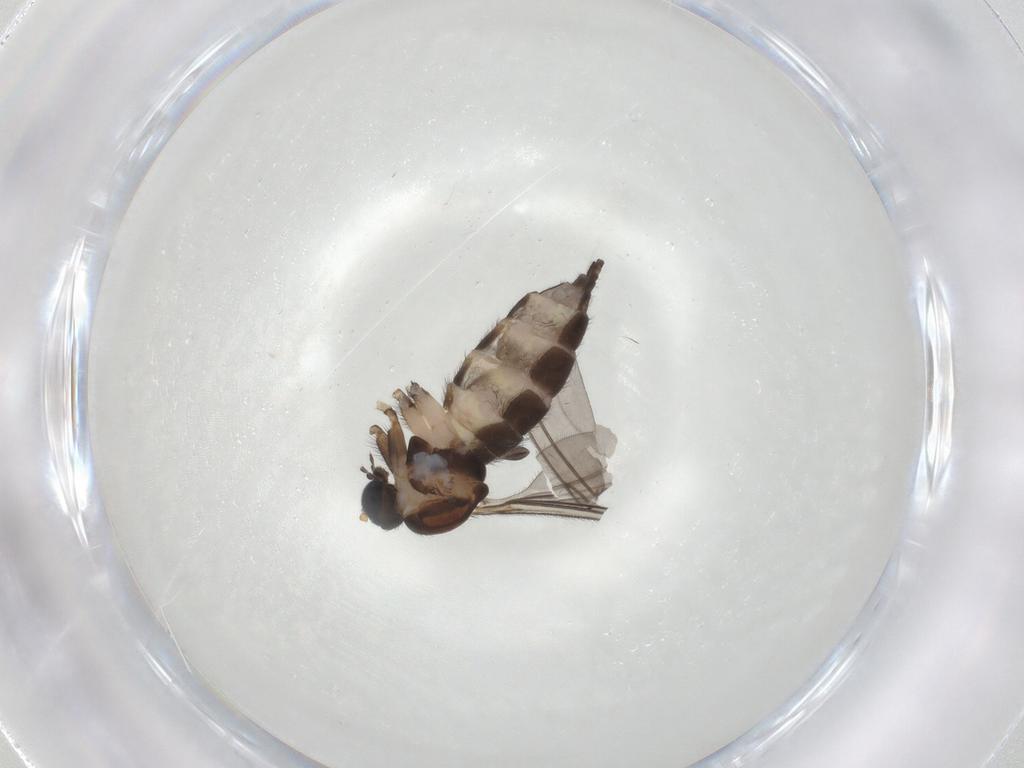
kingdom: Animalia
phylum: Arthropoda
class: Insecta
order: Diptera
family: Sciaridae
